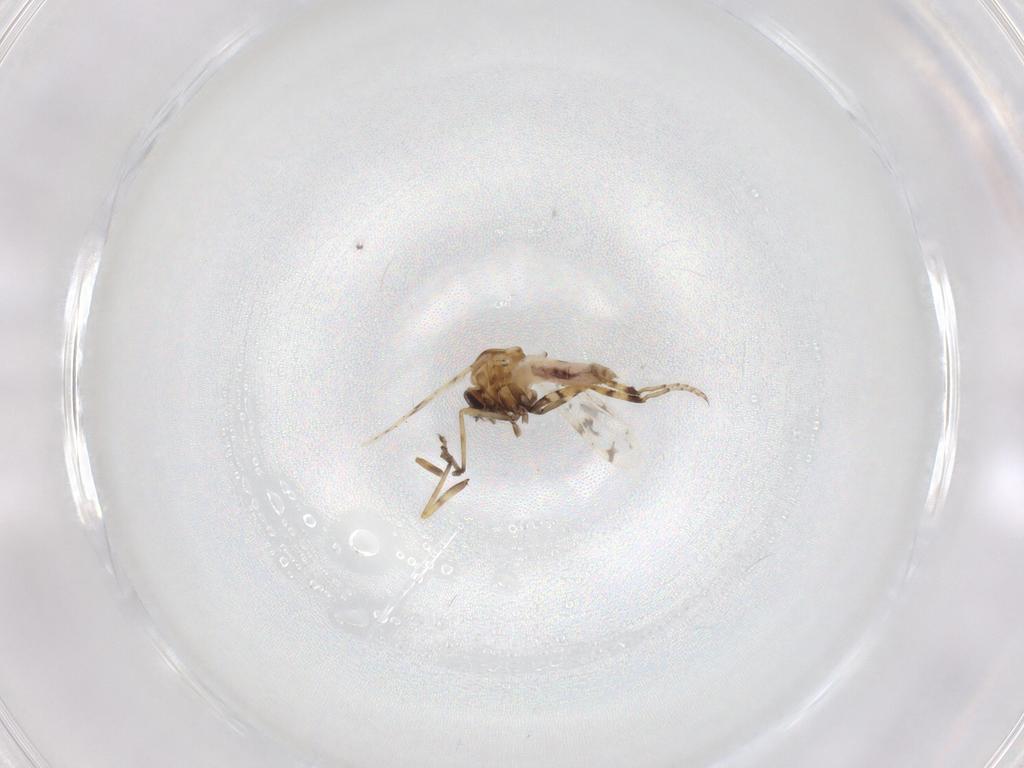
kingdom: Animalia
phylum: Arthropoda
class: Insecta
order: Diptera
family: Ceratopogonidae
